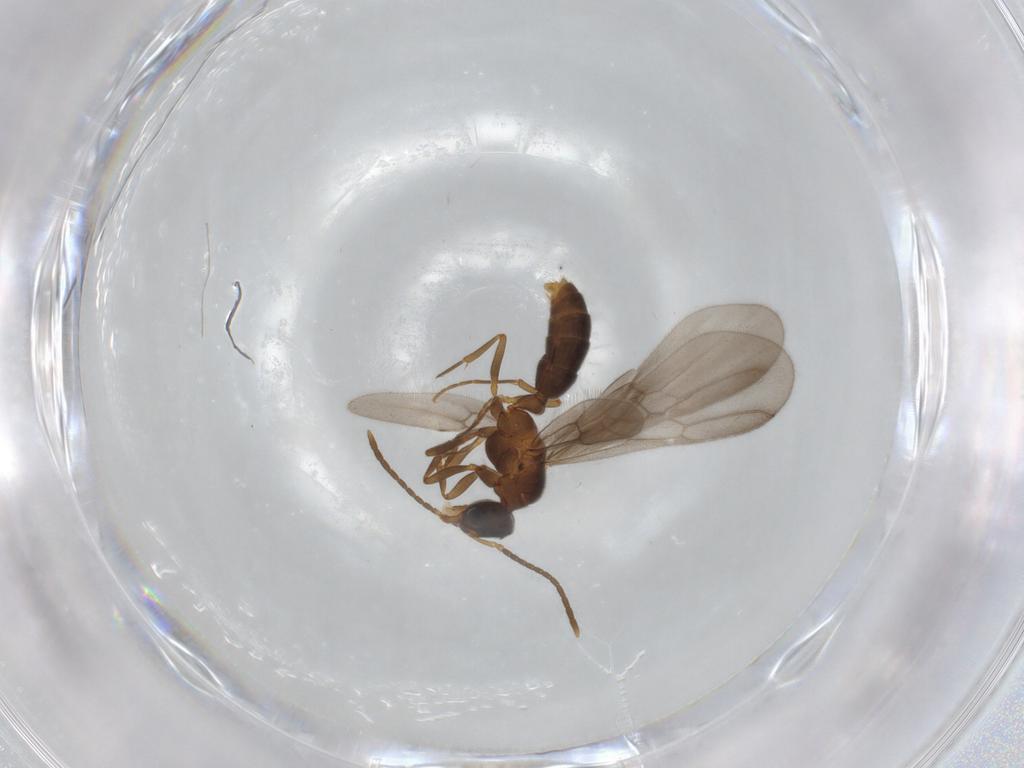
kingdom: Animalia
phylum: Arthropoda
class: Insecta
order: Hymenoptera
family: Formicidae
